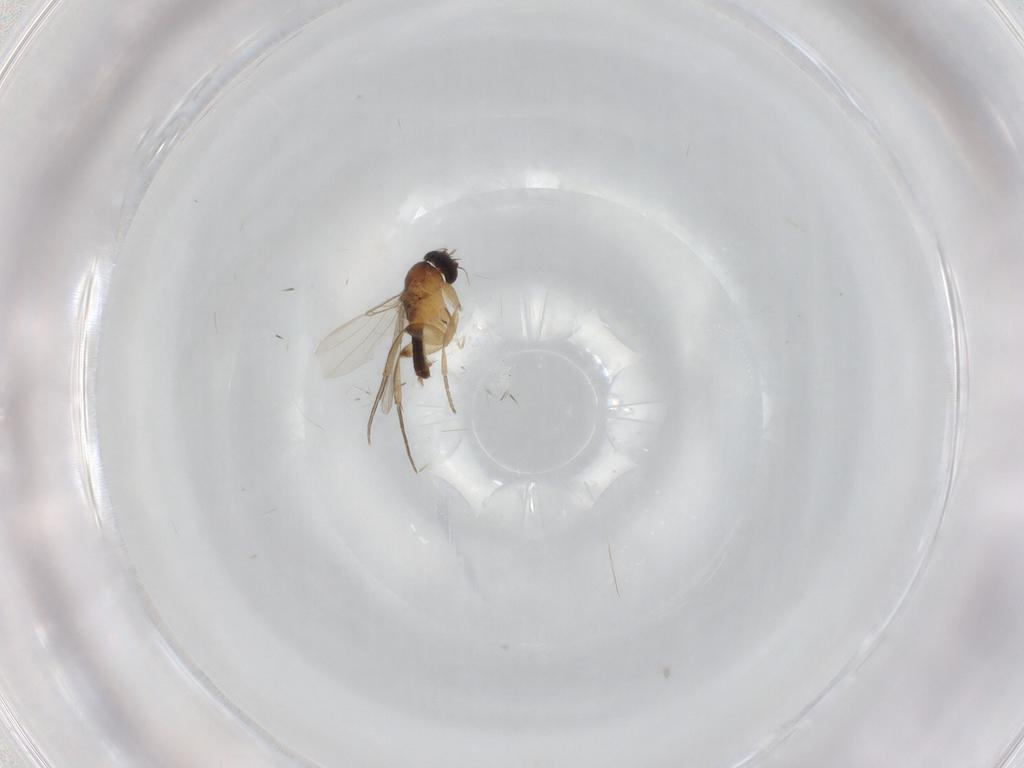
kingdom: Animalia
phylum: Arthropoda
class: Insecta
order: Diptera
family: Phoridae
